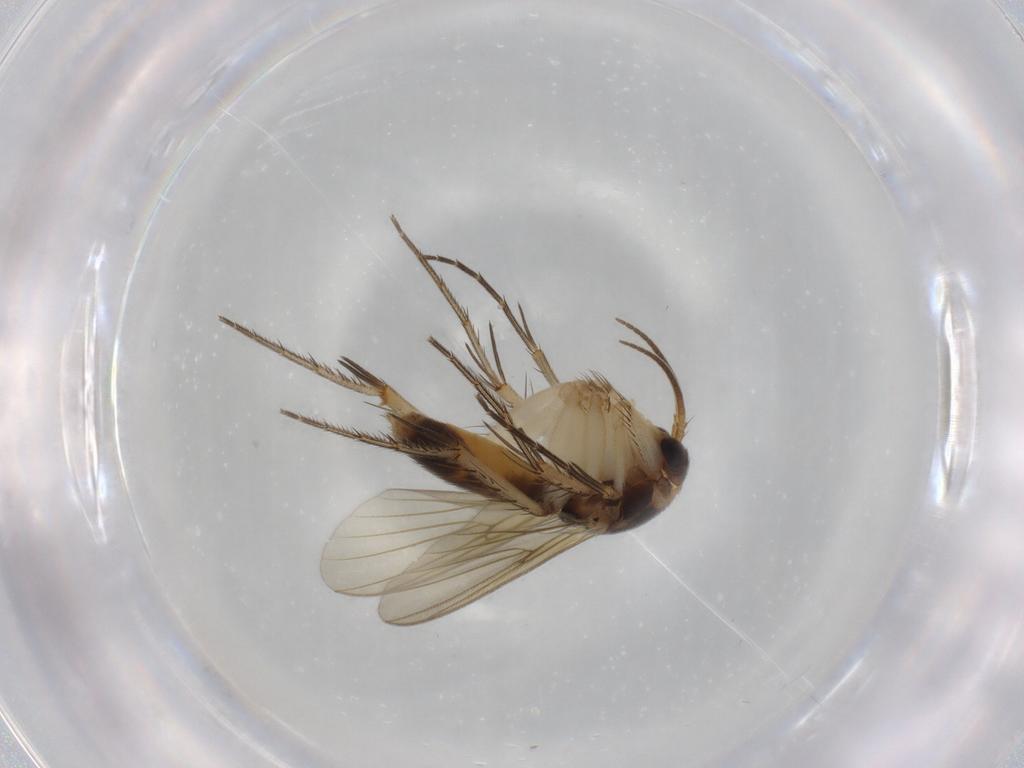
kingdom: Animalia
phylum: Arthropoda
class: Insecta
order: Diptera
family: Mycetophilidae
